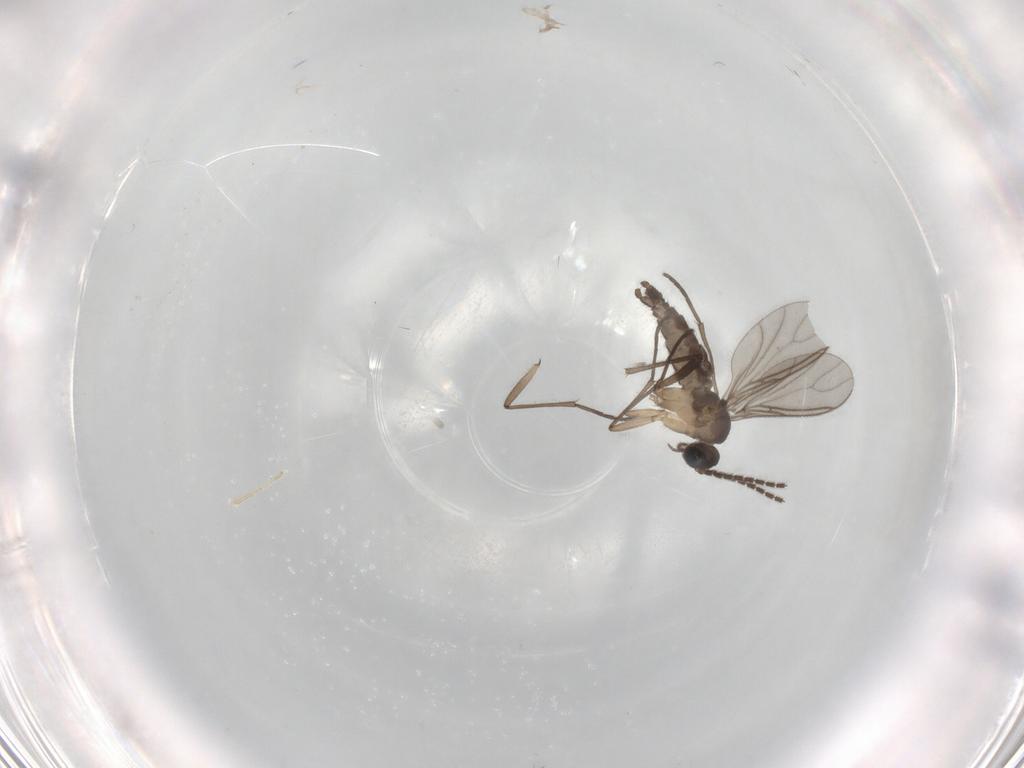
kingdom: Animalia
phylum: Arthropoda
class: Insecta
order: Diptera
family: Sciaridae
